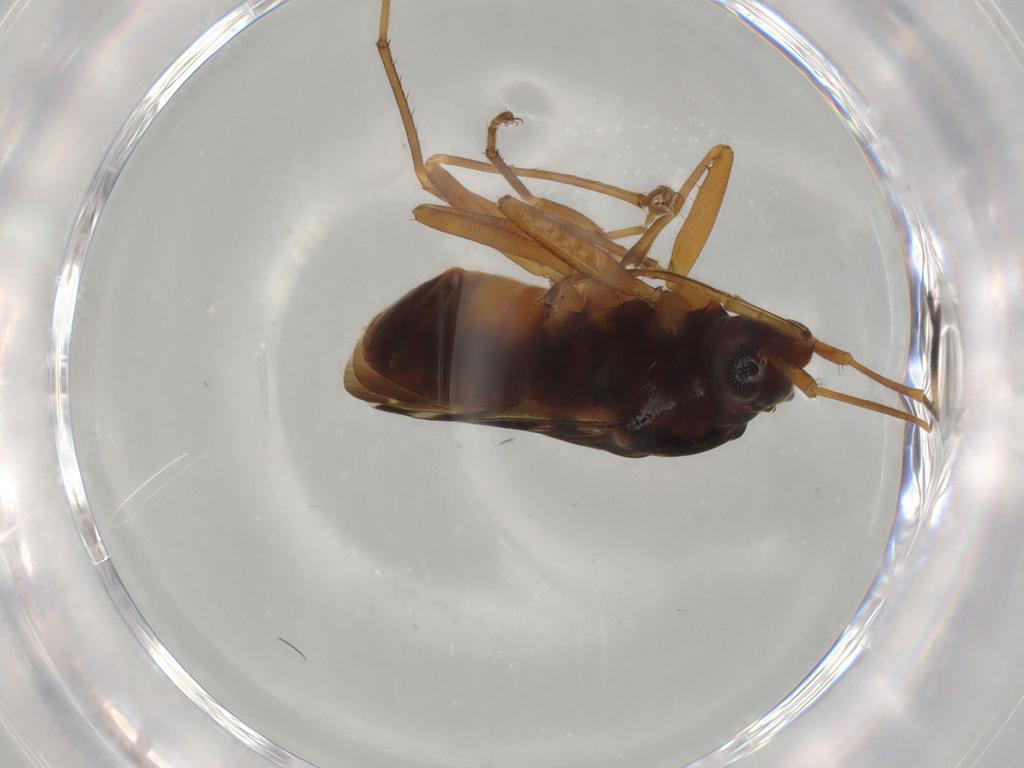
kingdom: Animalia
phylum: Arthropoda
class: Insecta
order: Hemiptera
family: Rhyparochromidae
